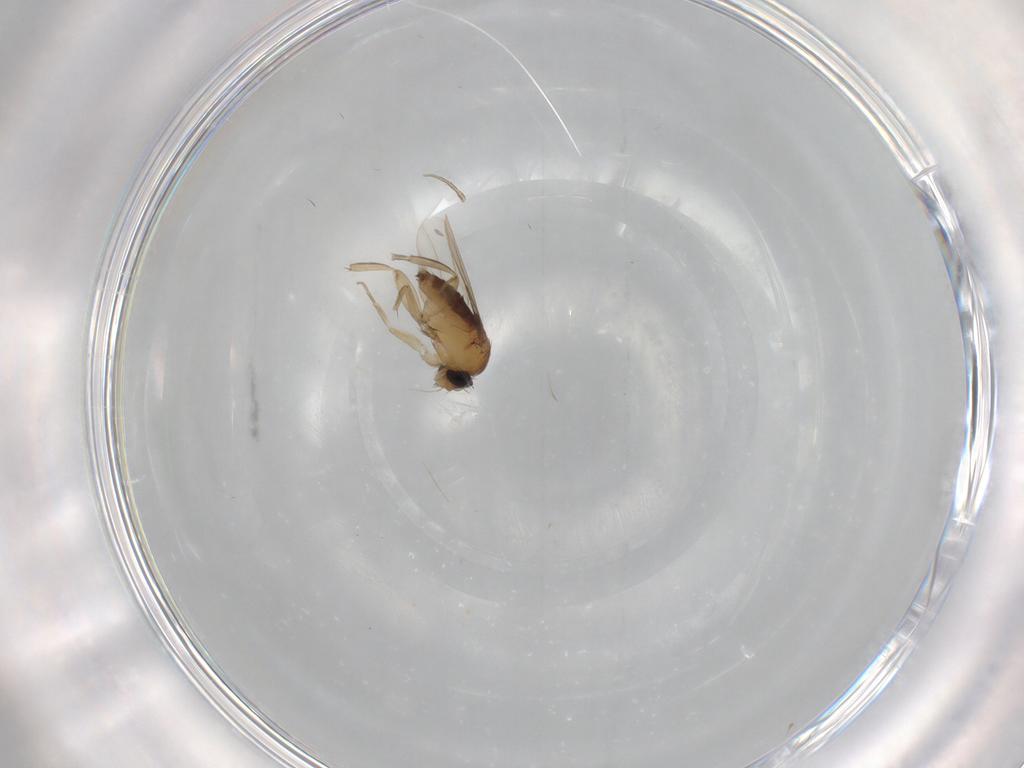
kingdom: Animalia
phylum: Arthropoda
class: Insecta
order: Diptera
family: Phoridae
